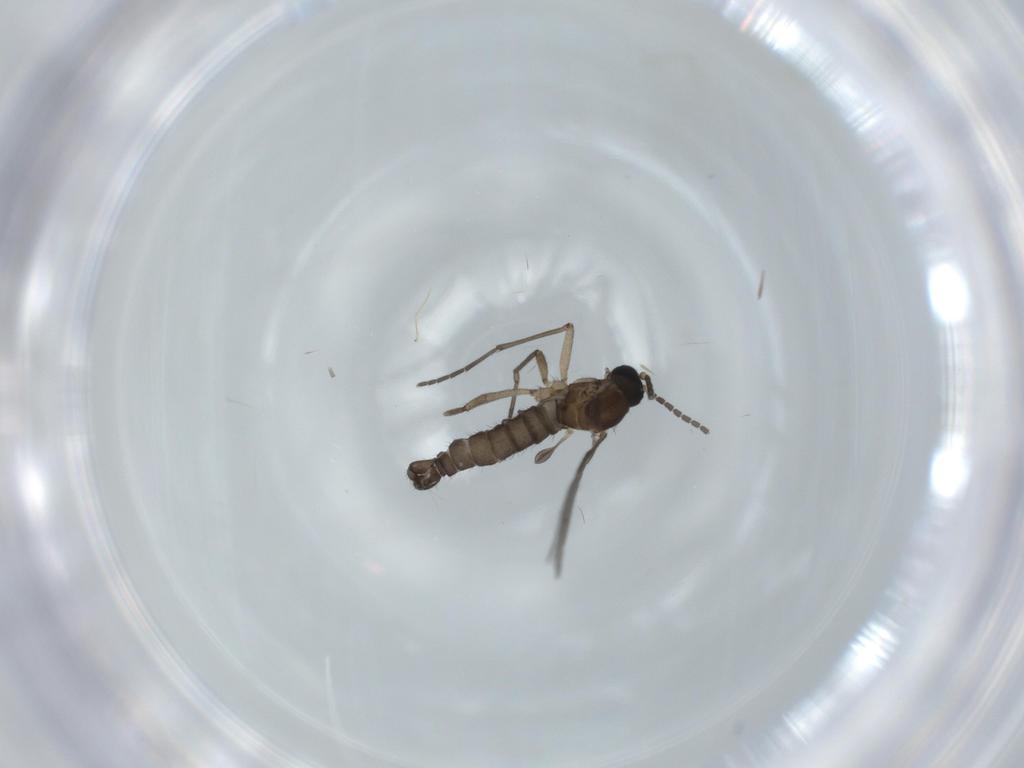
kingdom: Animalia
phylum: Arthropoda
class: Insecta
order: Diptera
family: Sciaridae
